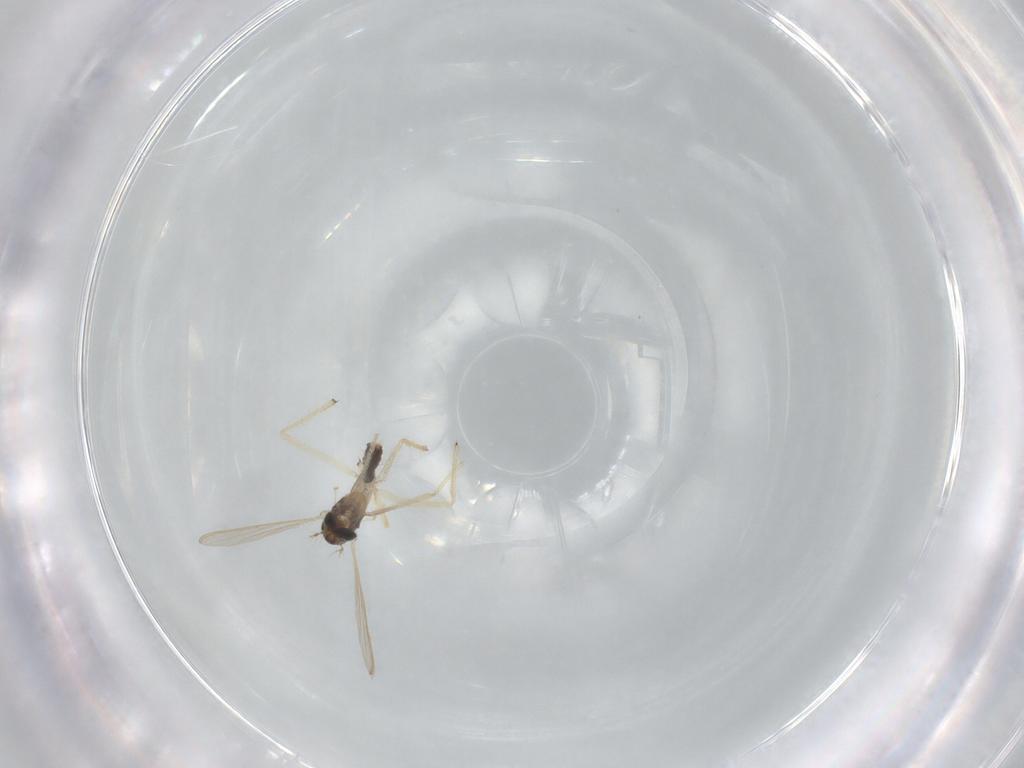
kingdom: Animalia
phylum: Arthropoda
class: Insecta
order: Diptera
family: Chironomidae
